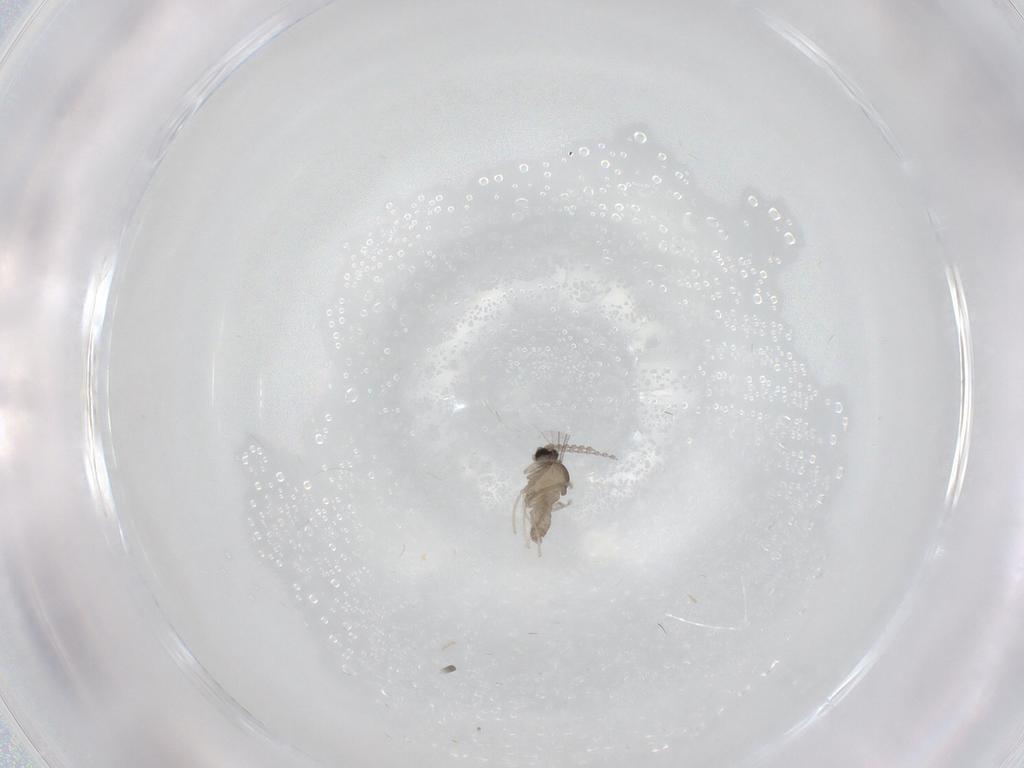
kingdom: Animalia
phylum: Arthropoda
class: Insecta
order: Diptera
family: Cecidomyiidae
